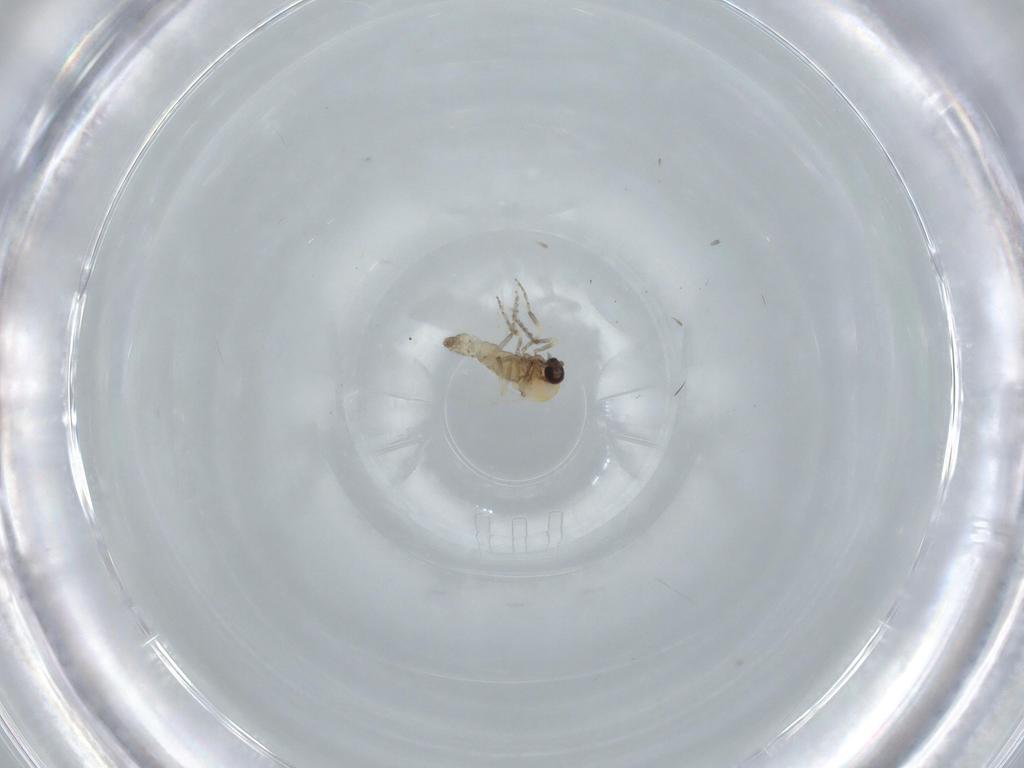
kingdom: Animalia
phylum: Arthropoda
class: Insecta
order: Diptera
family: Ceratopogonidae
